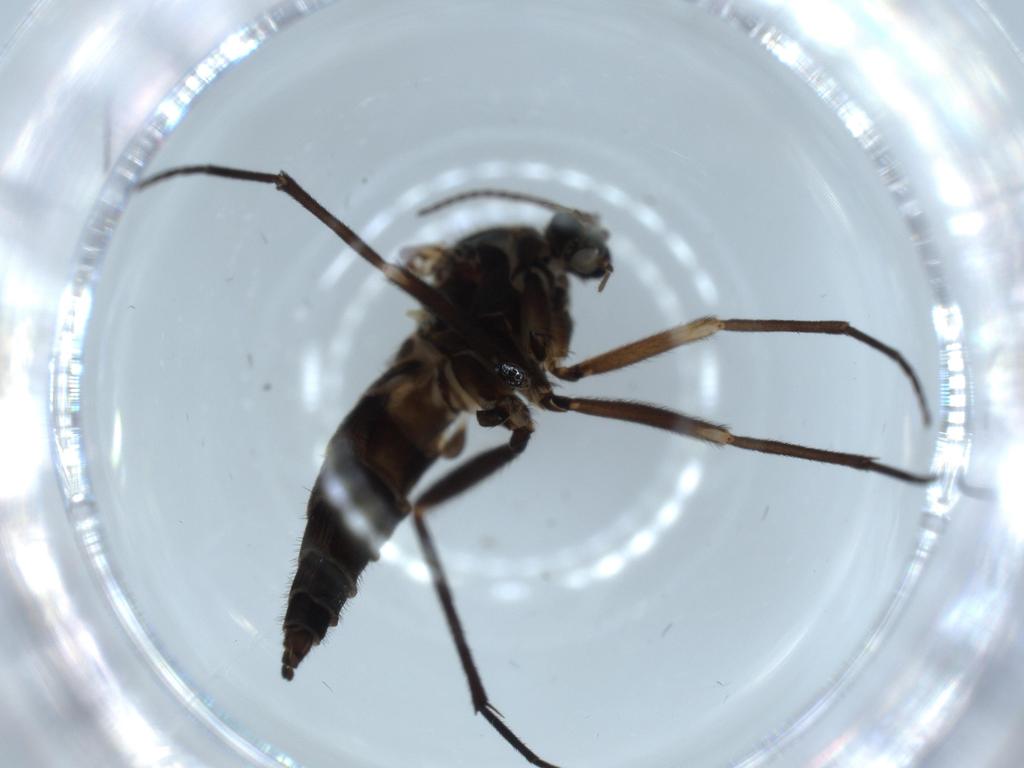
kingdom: Animalia
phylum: Arthropoda
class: Insecta
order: Diptera
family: Sciaridae
